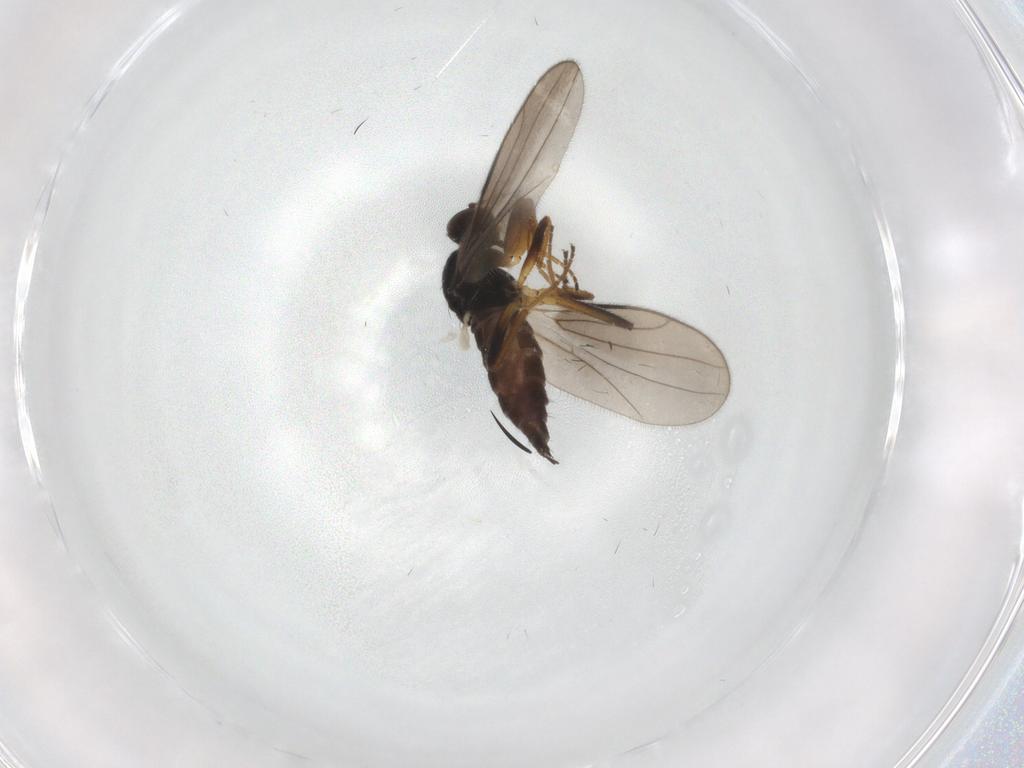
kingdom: Animalia
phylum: Arthropoda
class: Insecta
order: Diptera
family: Hybotidae
